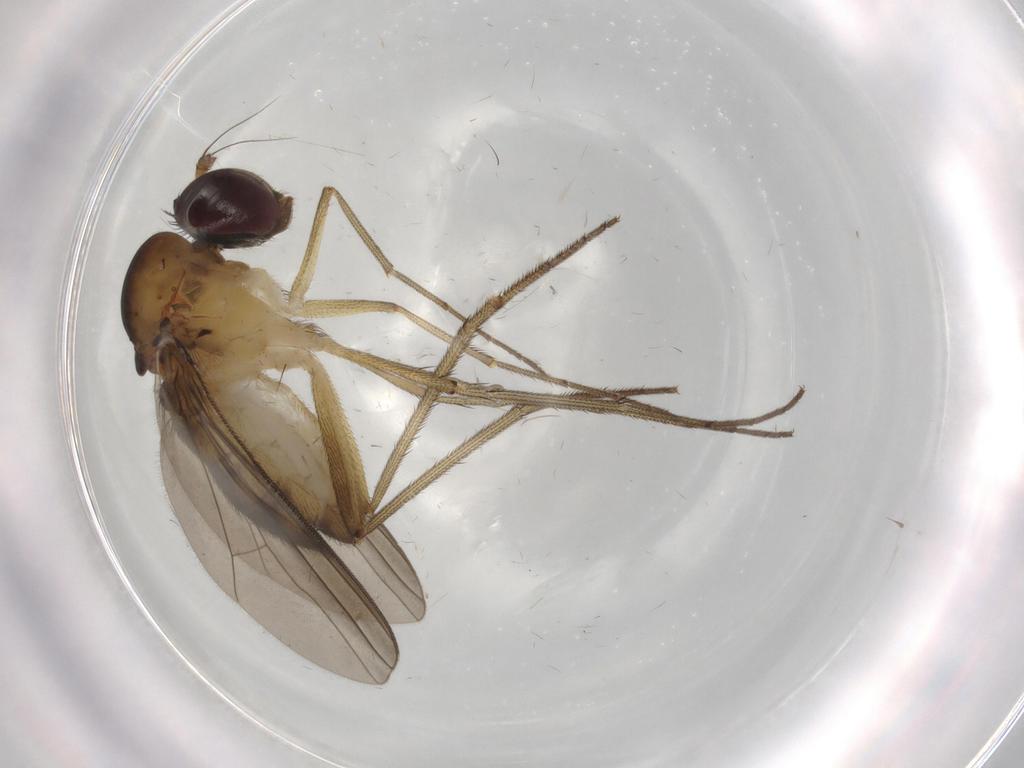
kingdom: Animalia
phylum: Arthropoda
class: Insecta
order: Diptera
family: Dolichopodidae
